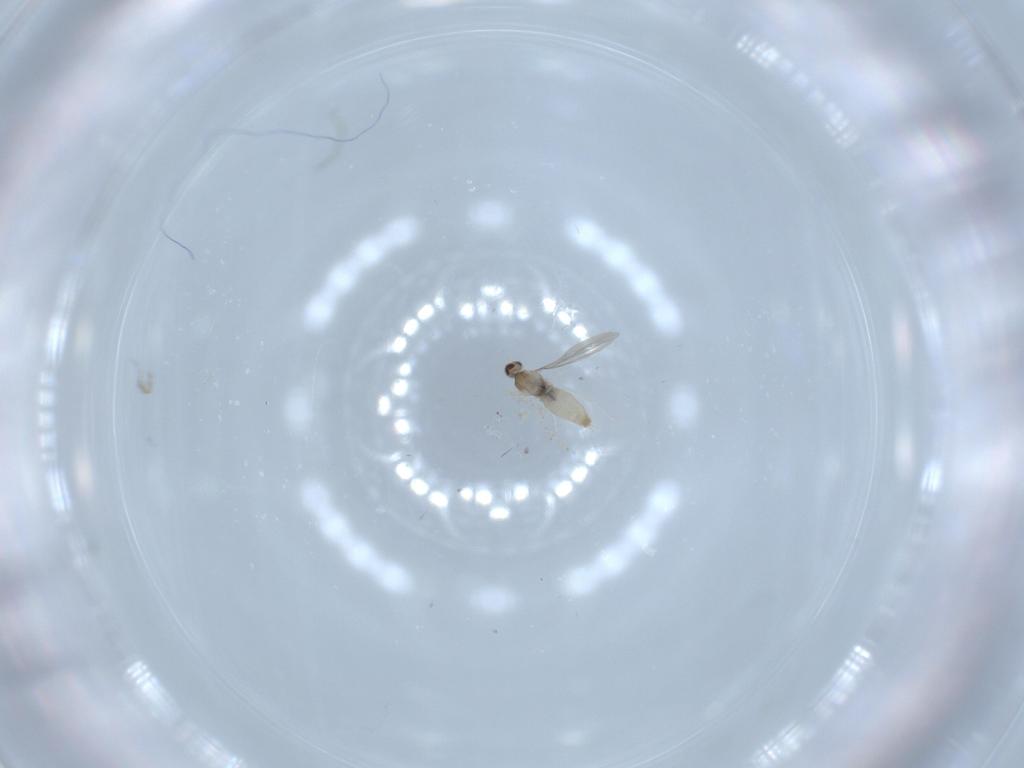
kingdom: Animalia
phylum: Arthropoda
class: Insecta
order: Diptera
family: Cecidomyiidae
